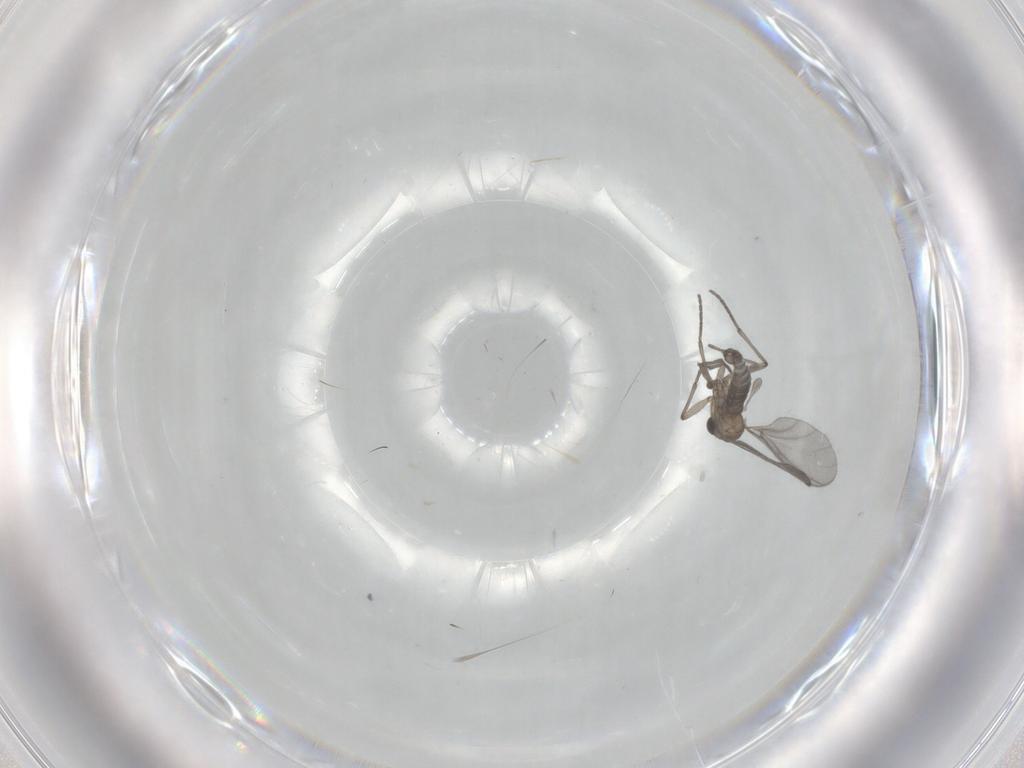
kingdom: Animalia
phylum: Arthropoda
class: Insecta
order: Diptera
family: Sciaridae
